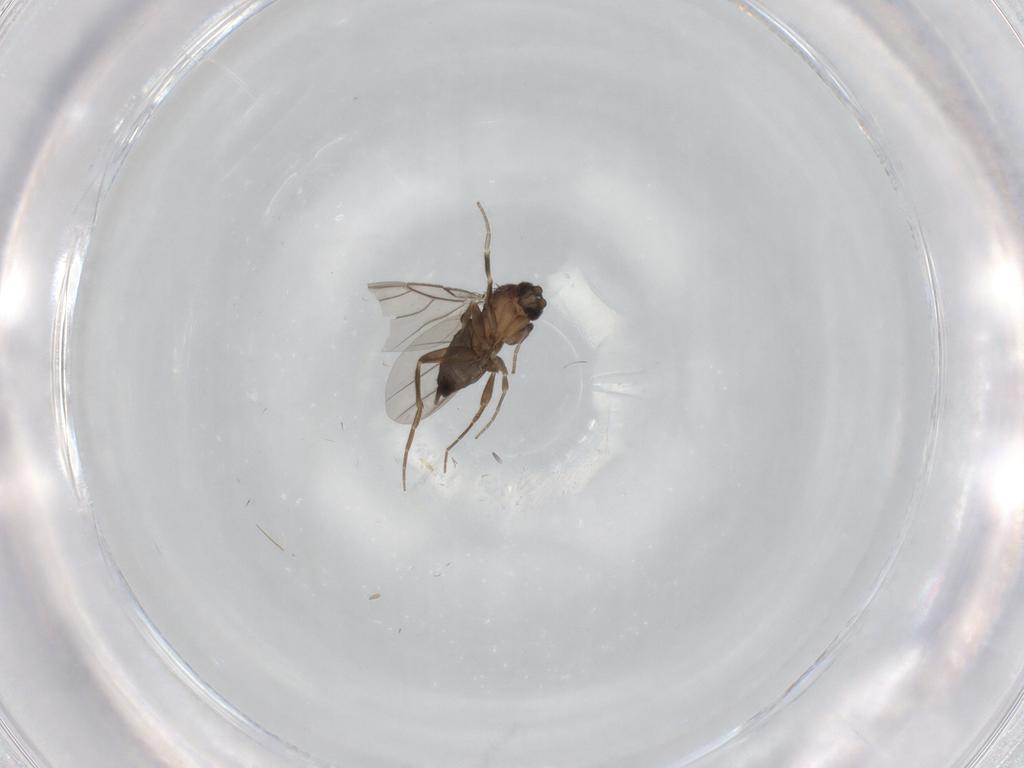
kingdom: Animalia
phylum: Arthropoda
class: Insecta
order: Diptera
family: Phoridae
